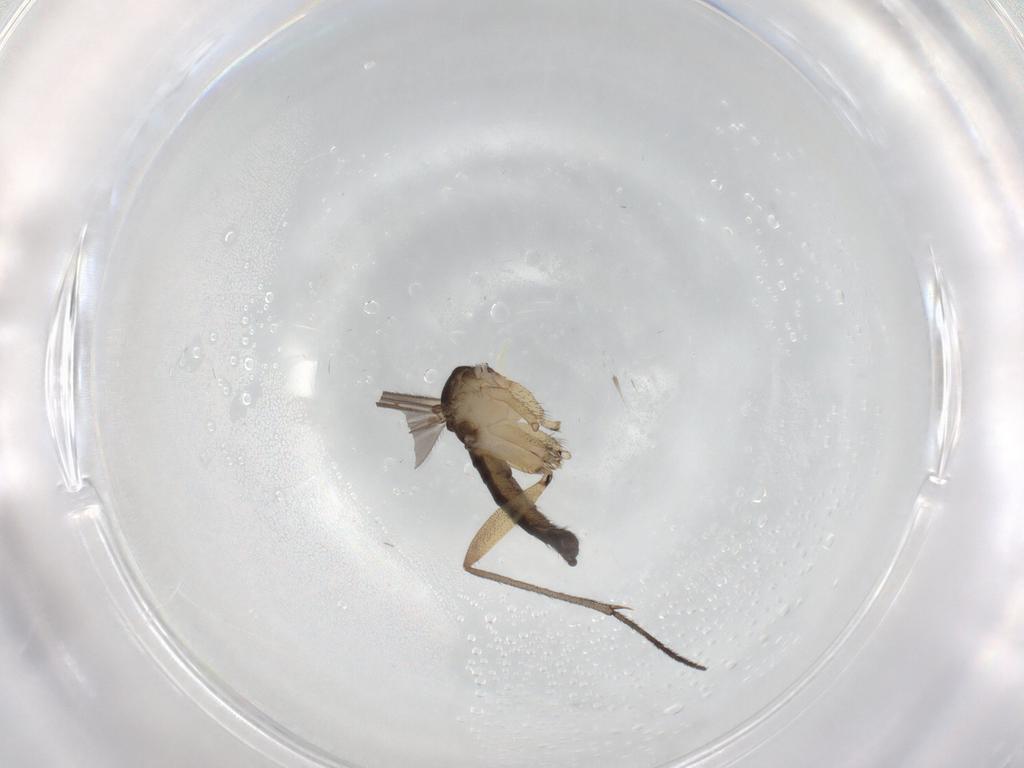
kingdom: Animalia
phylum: Arthropoda
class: Insecta
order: Diptera
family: Sciaridae
